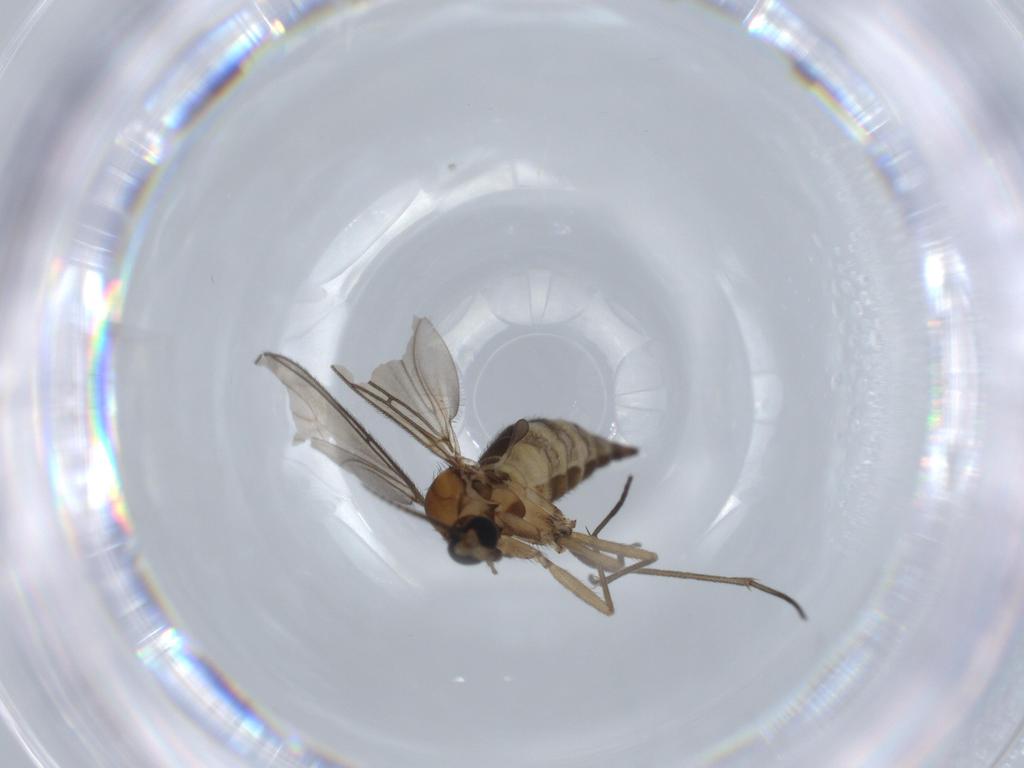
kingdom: Animalia
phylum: Arthropoda
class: Insecta
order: Diptera
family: Sciaridae
